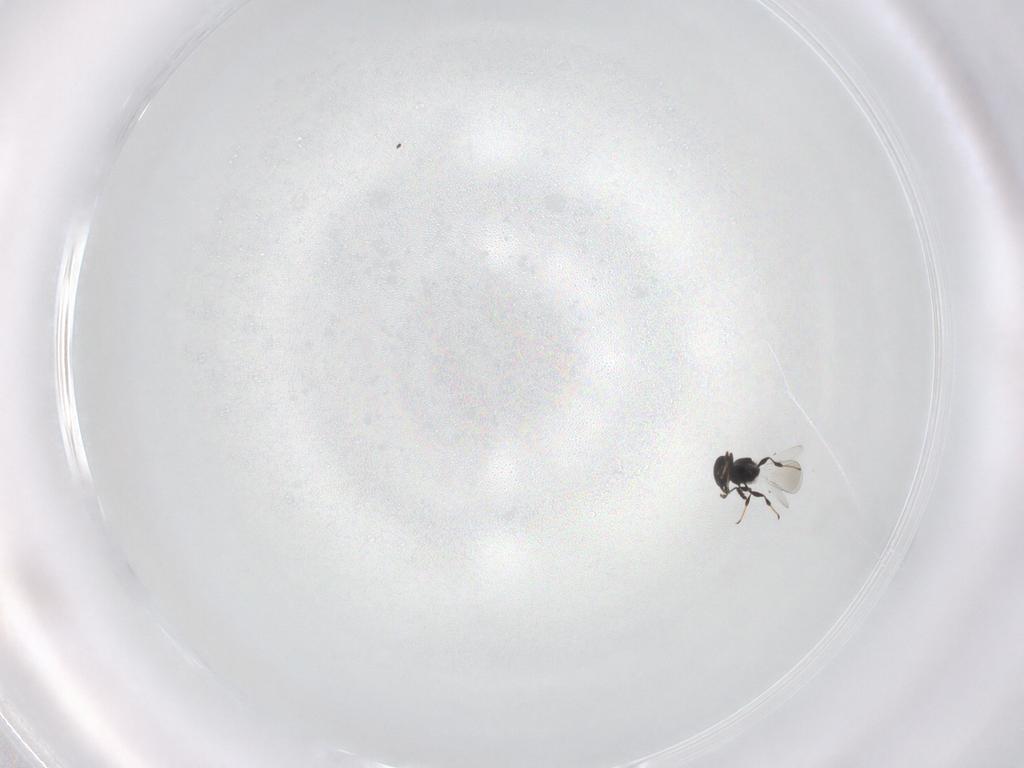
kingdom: Animalia
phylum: Arthropoda
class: Insecta
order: Hymenoptera
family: Platygastridae
